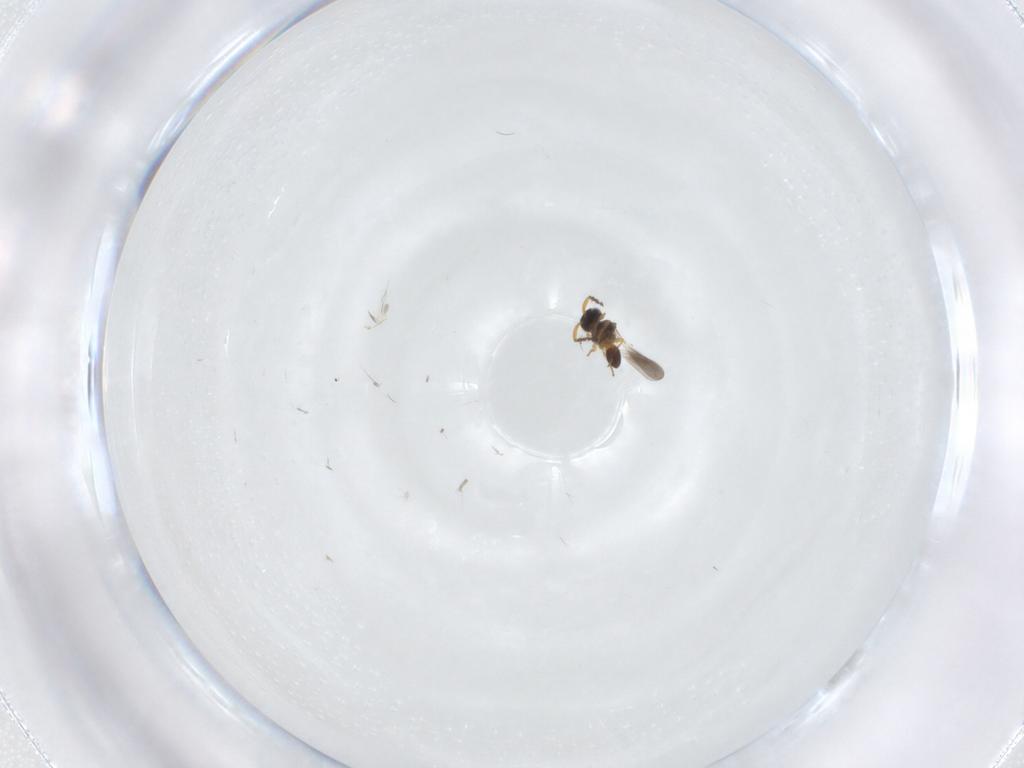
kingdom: Animalia
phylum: Arthropoda
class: Insecta
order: Hymenoptera
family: Platygastridae
